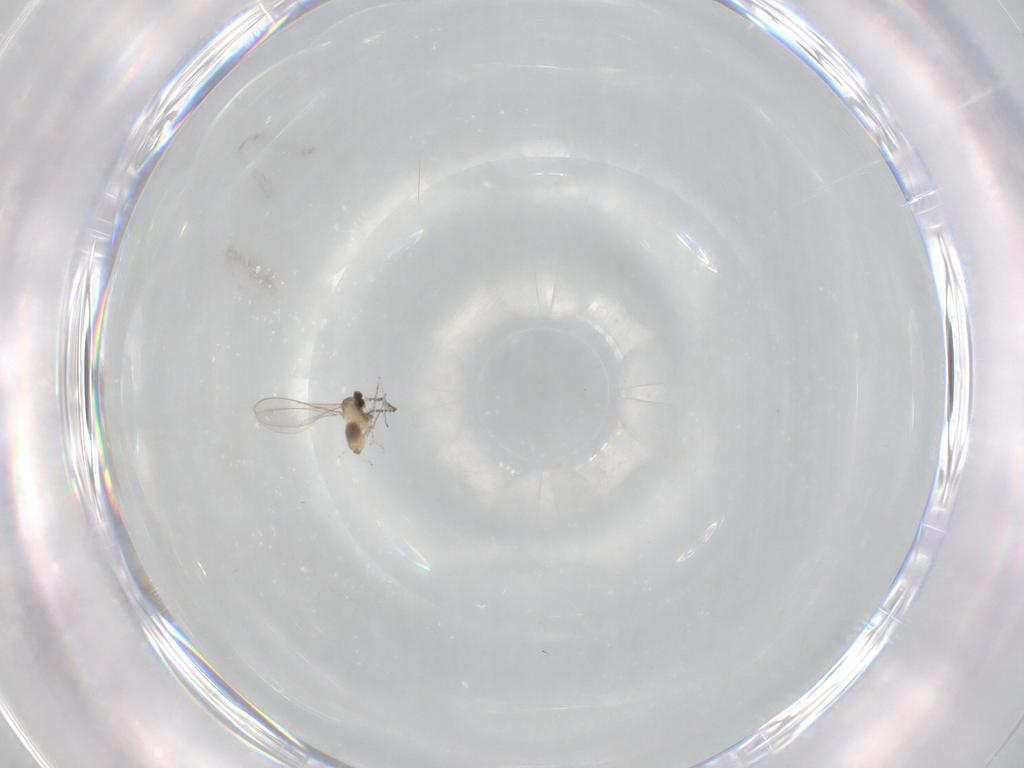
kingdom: Animalia
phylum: Arthropoda
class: Insecta
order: Diptera
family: Cecidomyiidae
